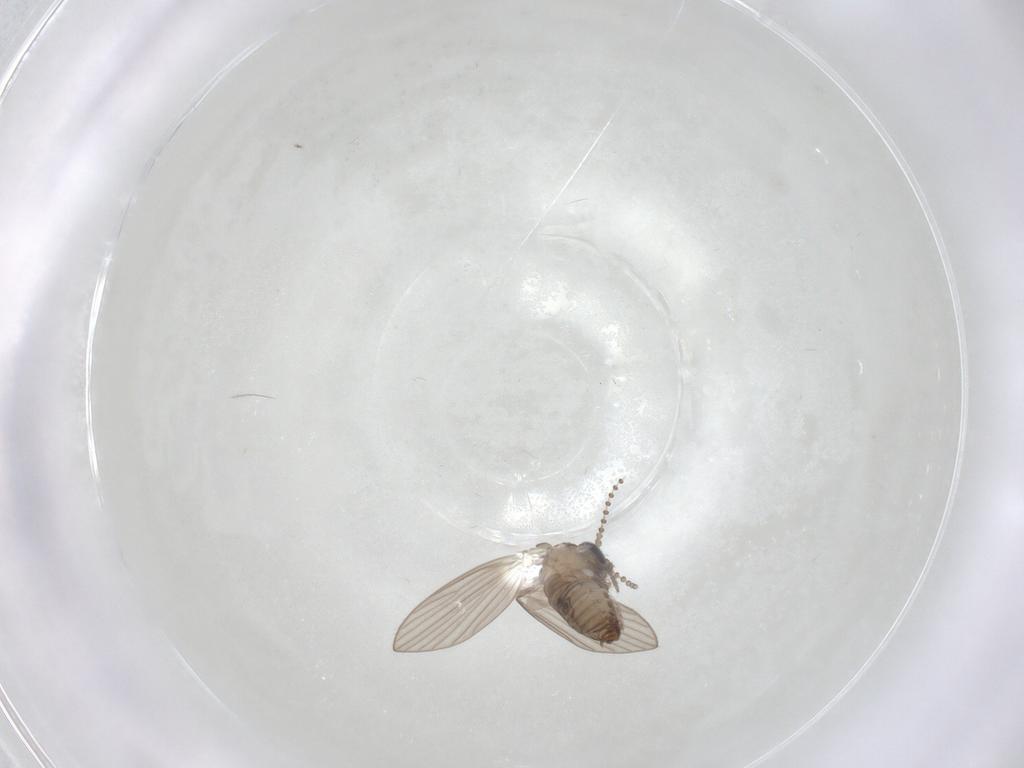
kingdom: Animalia
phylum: Arthropoda
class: Insecta
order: Diptera
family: Psychodidae
